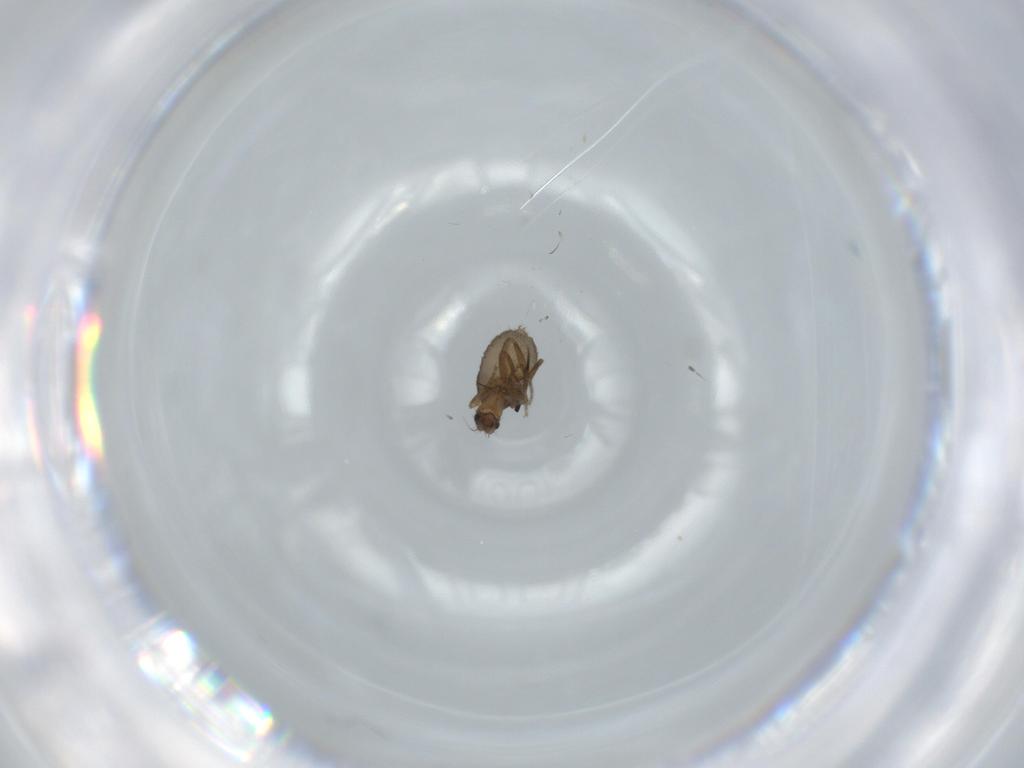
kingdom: Animalia
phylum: Arthropoda
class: Insecta
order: Diptera
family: Phoridae
